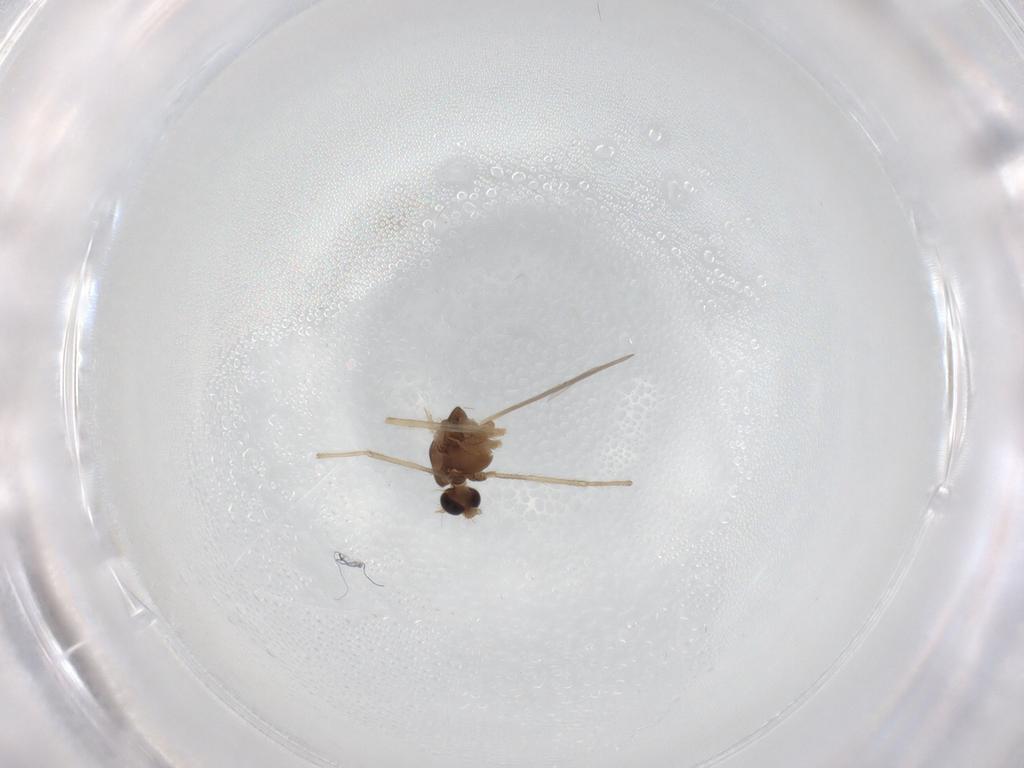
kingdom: Animalia
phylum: Arthropoda
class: Insecta
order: Diptera
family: Chironomidae
